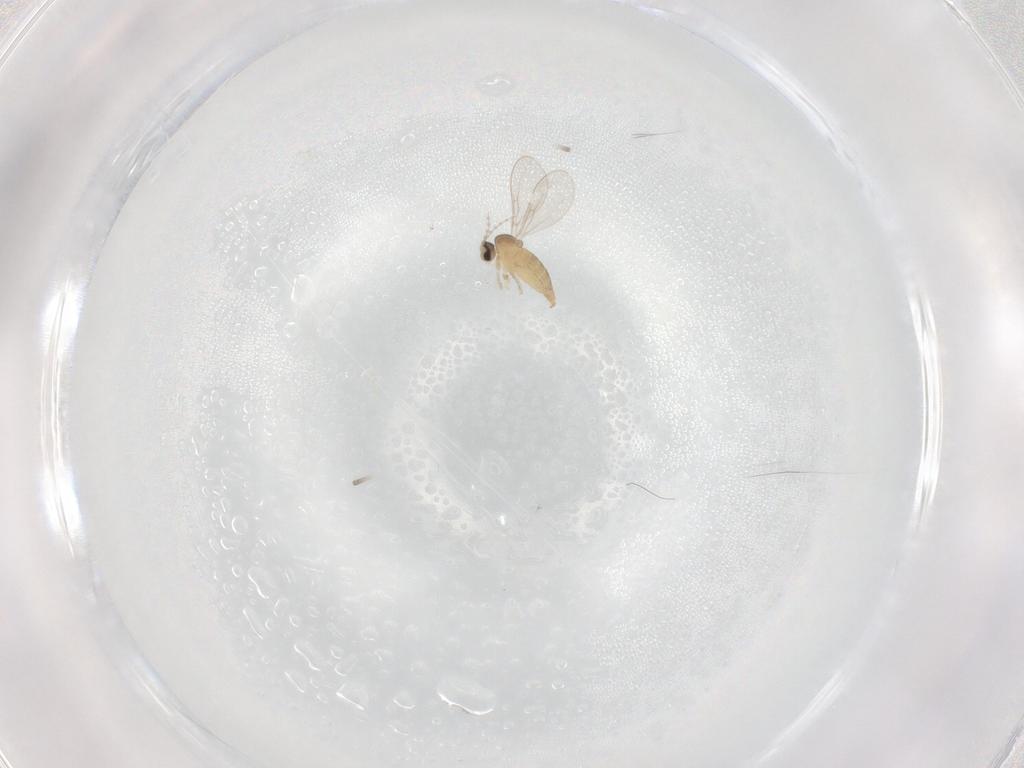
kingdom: Animalia
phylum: Arthropoda
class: Insecta
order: Diptera
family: Cecidomyiidae
